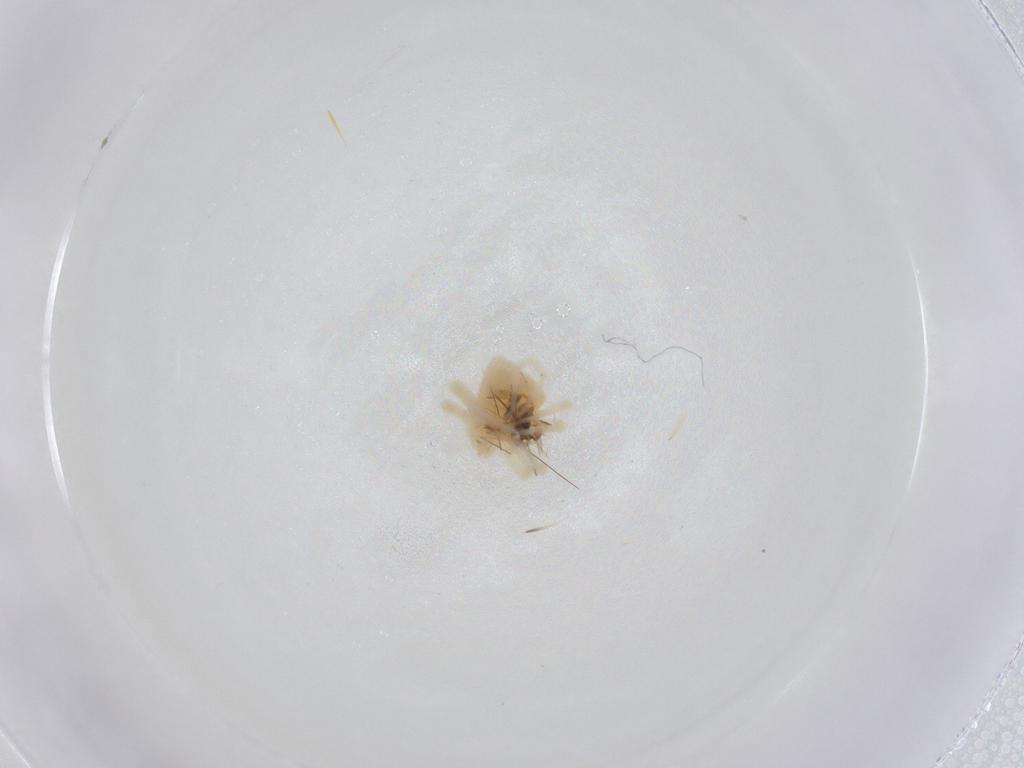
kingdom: Animalia
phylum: Arthropoda
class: Arachnida
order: Trombidiformes
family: Anystidae
